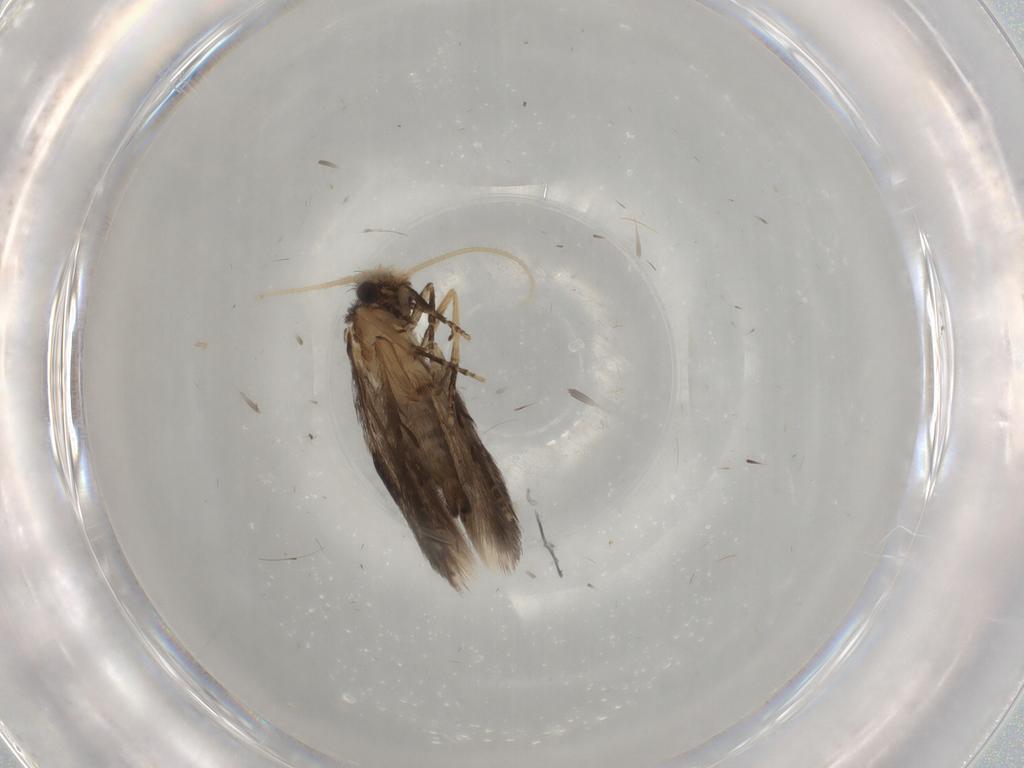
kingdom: Animalia
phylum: Arthropoda
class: Insecta
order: Trichoptera
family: Hydroptilidae
